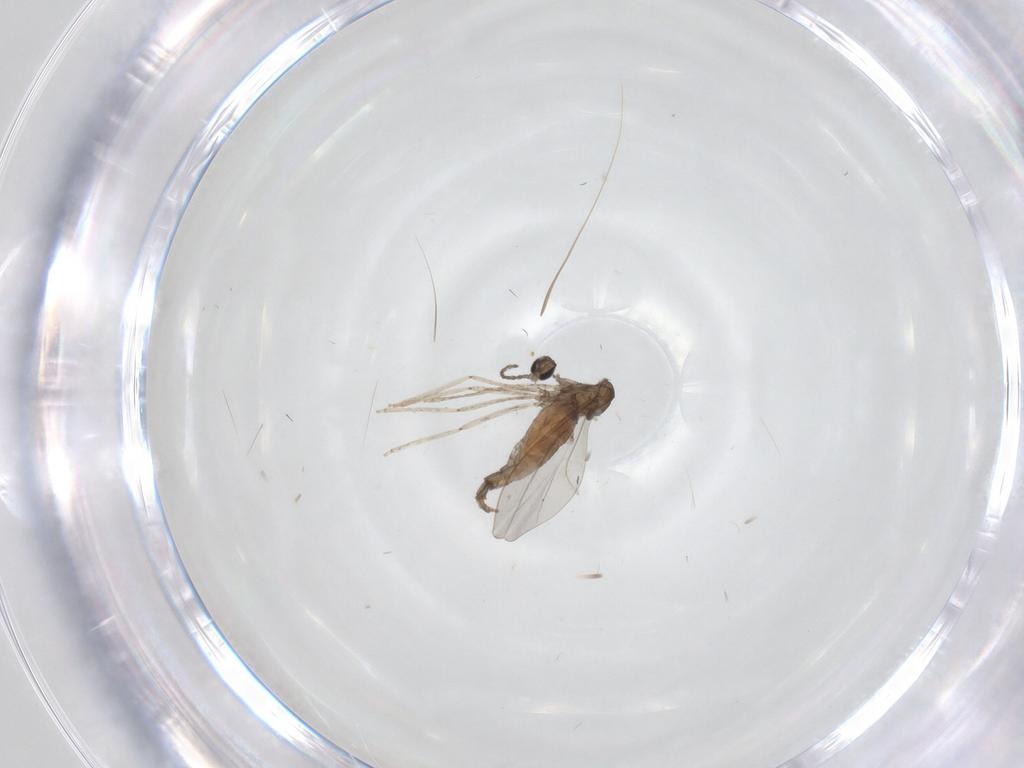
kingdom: Animalia
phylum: Arthropoda
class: Insecta
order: Diptera
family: Cecidomyiidae
